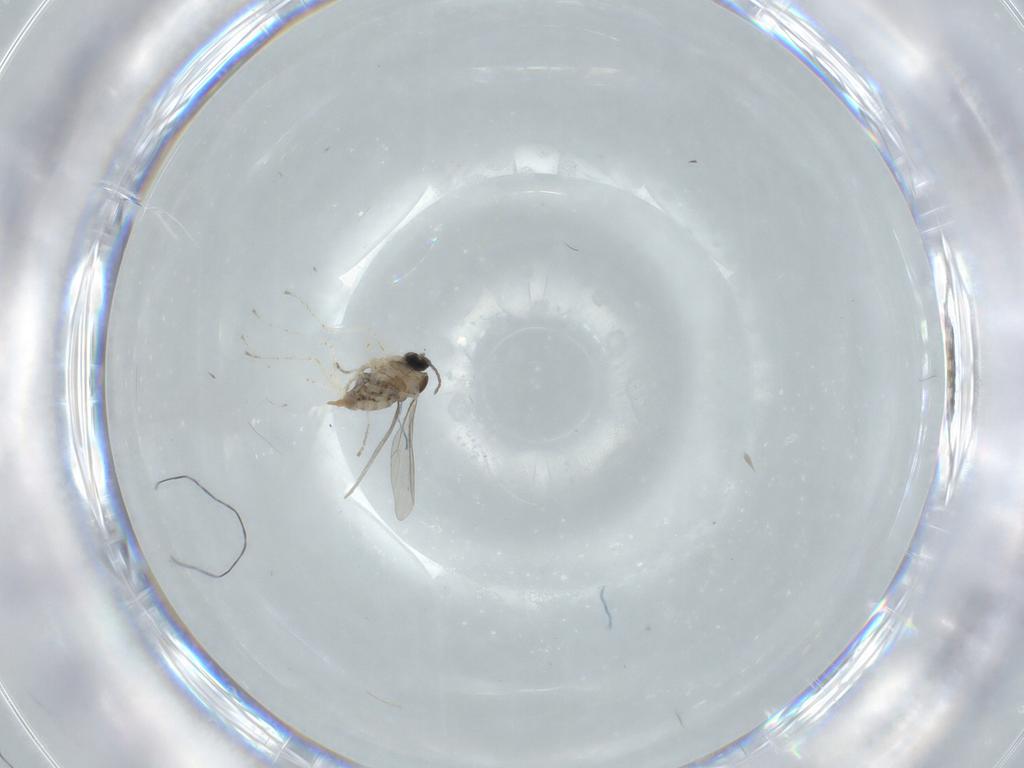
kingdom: Animalia
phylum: Arthropoda
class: Insecta
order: Diptera
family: Cecidomyiidae
